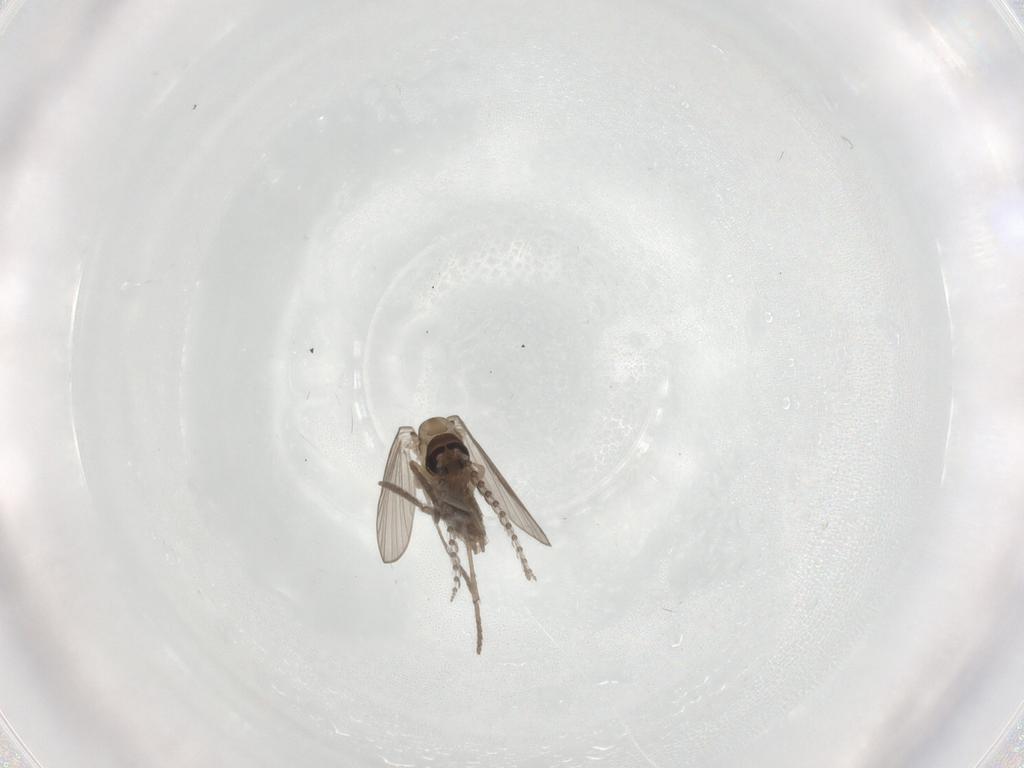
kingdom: Animalia
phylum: Arthropoda
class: Insecta
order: Diptera
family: Psychodidae
